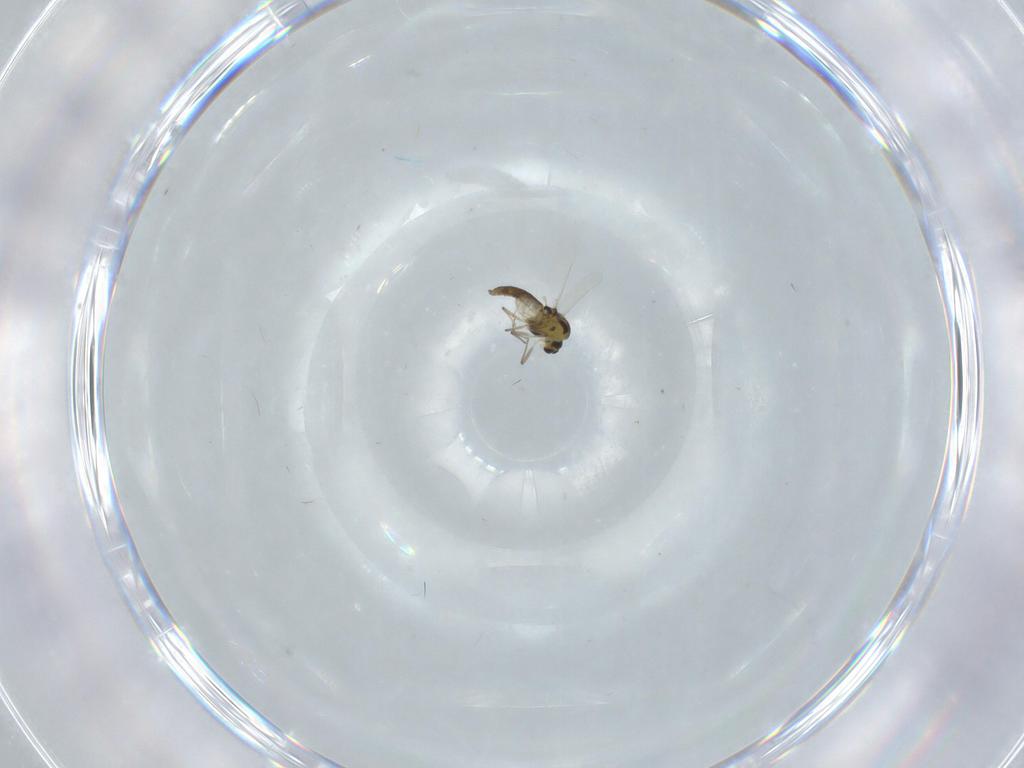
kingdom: Animalia
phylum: Arthropoda
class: Insecta
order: Diptera
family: Chironomidae
